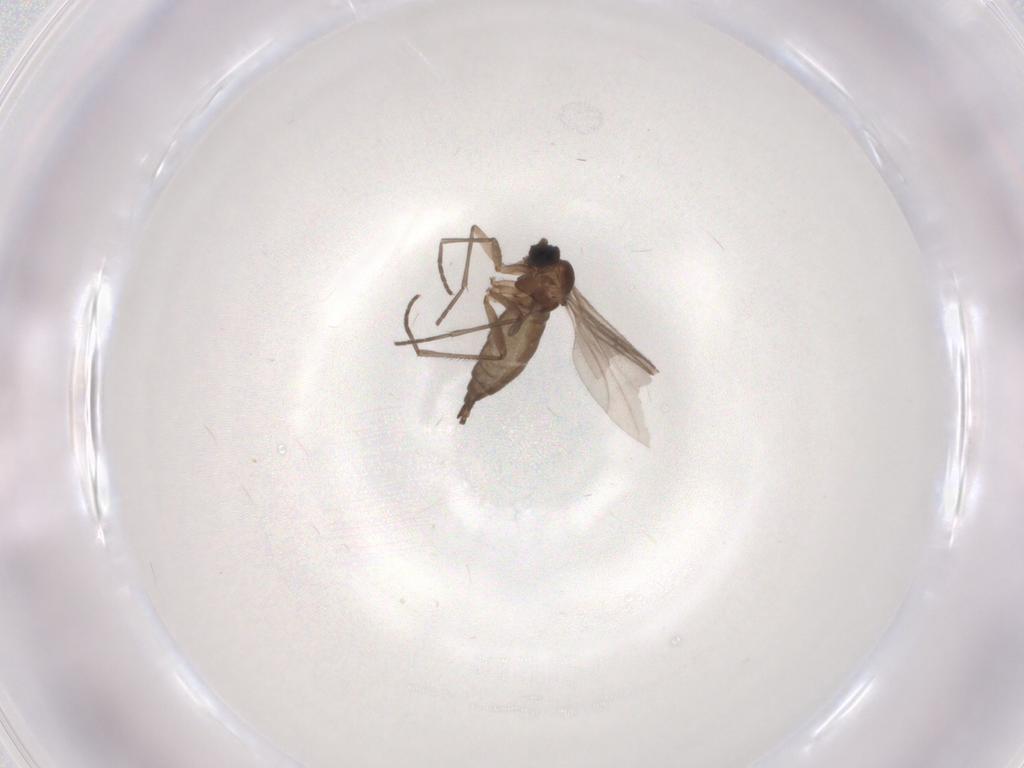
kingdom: Animalia
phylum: Arthropoda
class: Insecta
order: Diptera
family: Sciaridae
